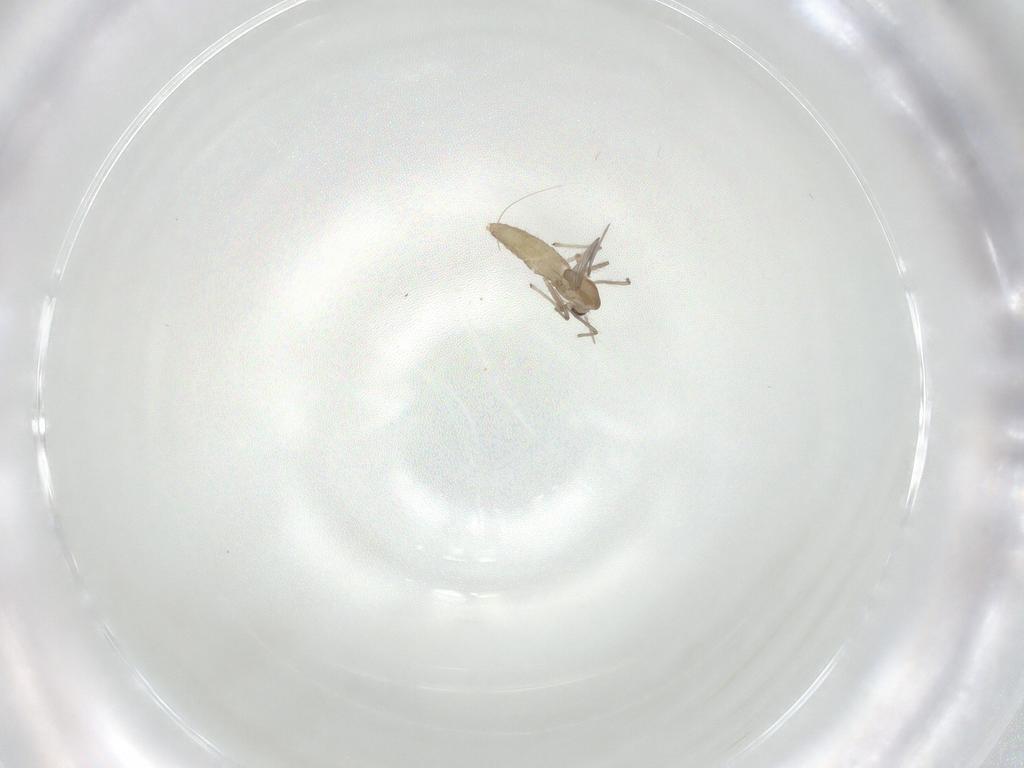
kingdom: Animalia
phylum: Arthropoda
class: Insecta
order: Diptera
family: Chironomidae
